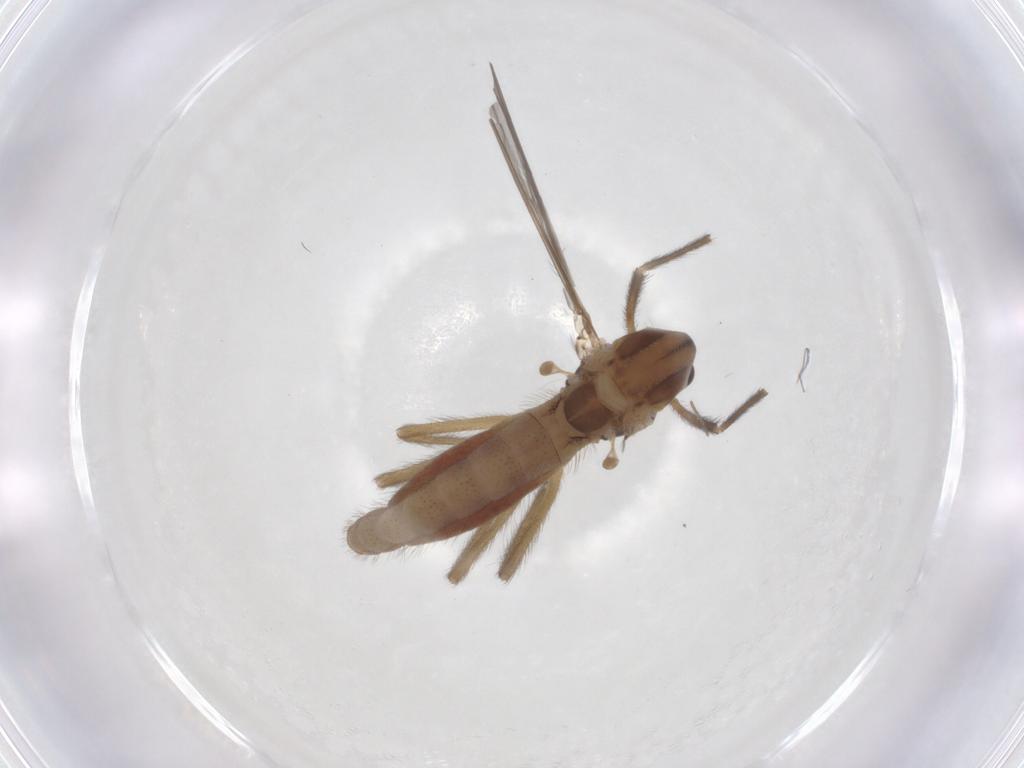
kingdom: Animalia
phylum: Arthropoda
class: Insecta
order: Diptera
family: Chironomidae
